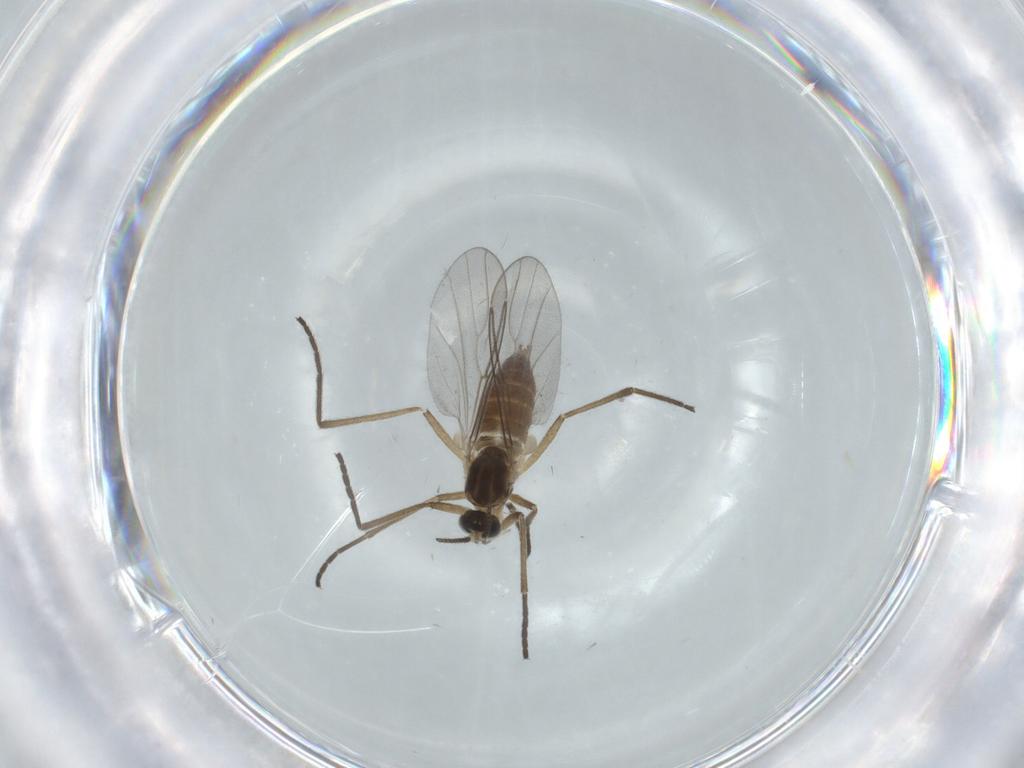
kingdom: Animalia
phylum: Arthropoda
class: Insecta
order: Diptera
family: Cecidomyiidae
